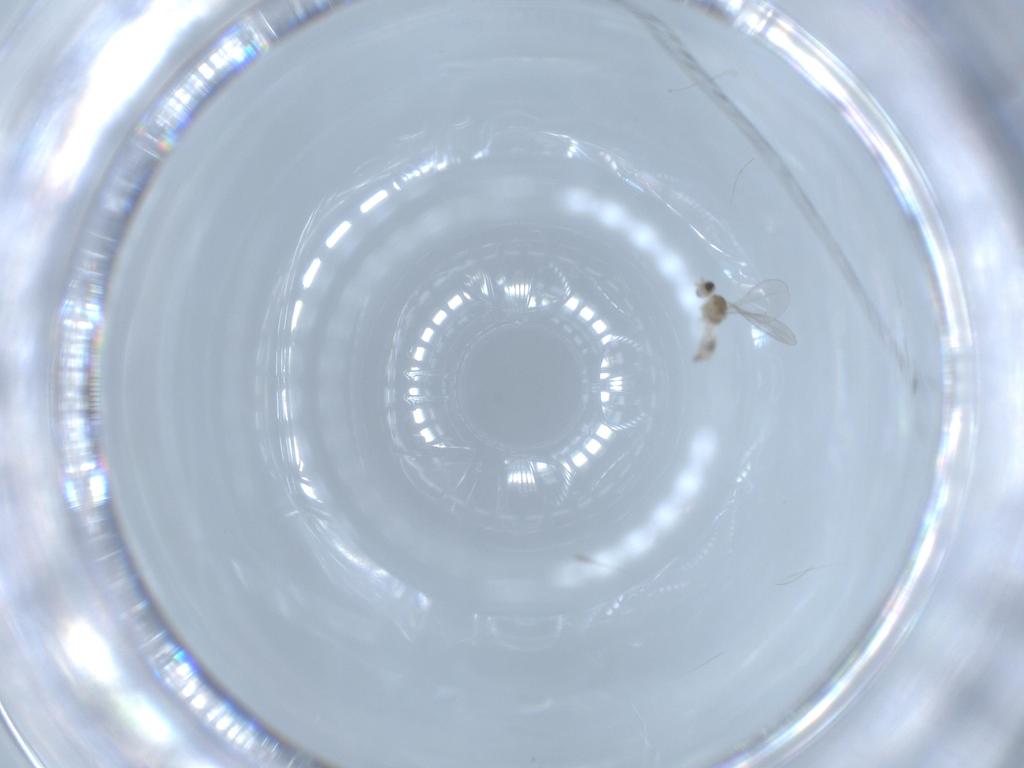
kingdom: Animalia
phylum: Arthropoda
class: Insecta
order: Diptera
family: Cecidomyiidae
